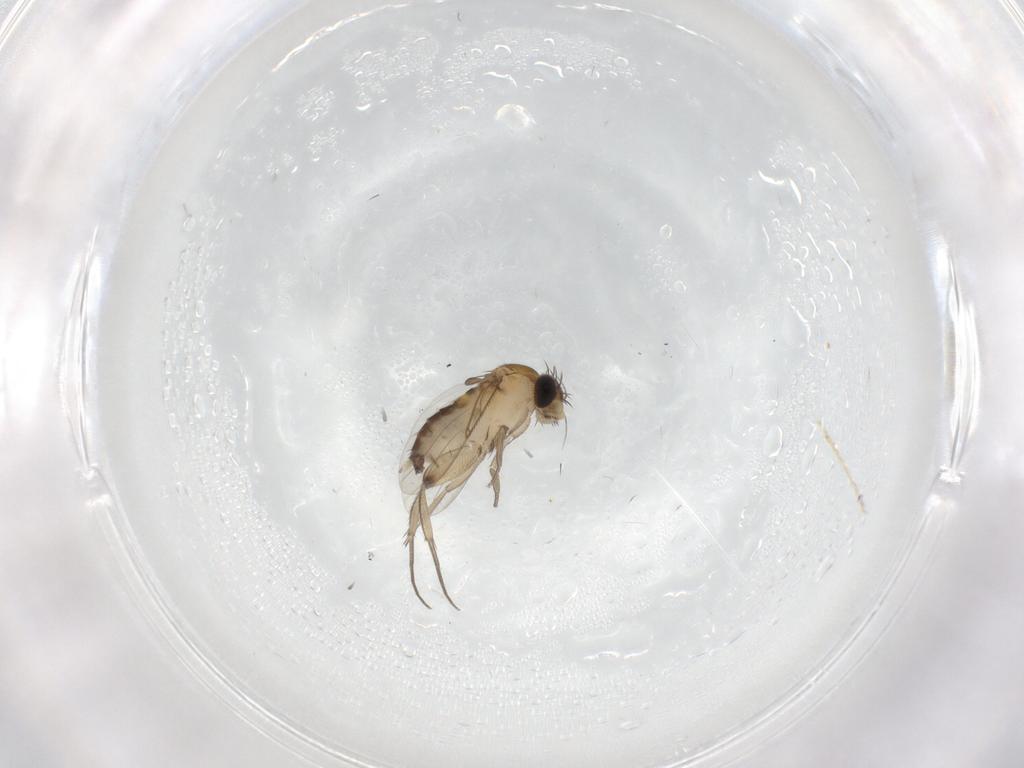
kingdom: Animalia
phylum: Arthropoda
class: Insecta
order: Diptera
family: Phoridae
